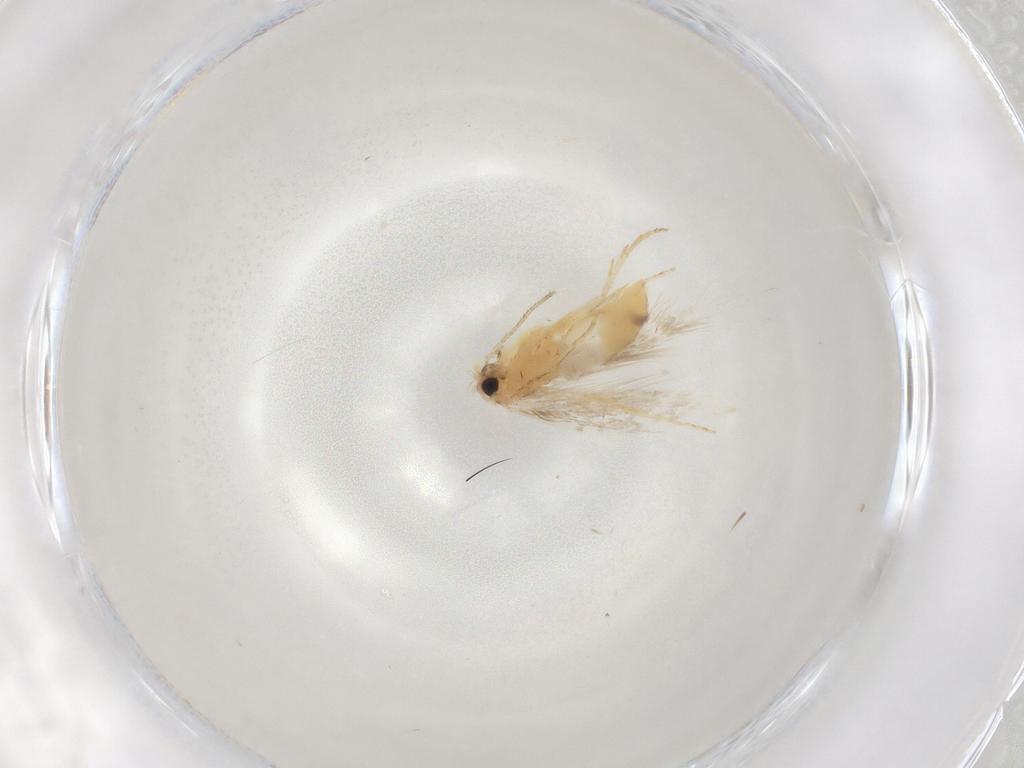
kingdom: Animalia
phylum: Arthropoda
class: Insecta
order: Lepidoptera
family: Nepticulidae
